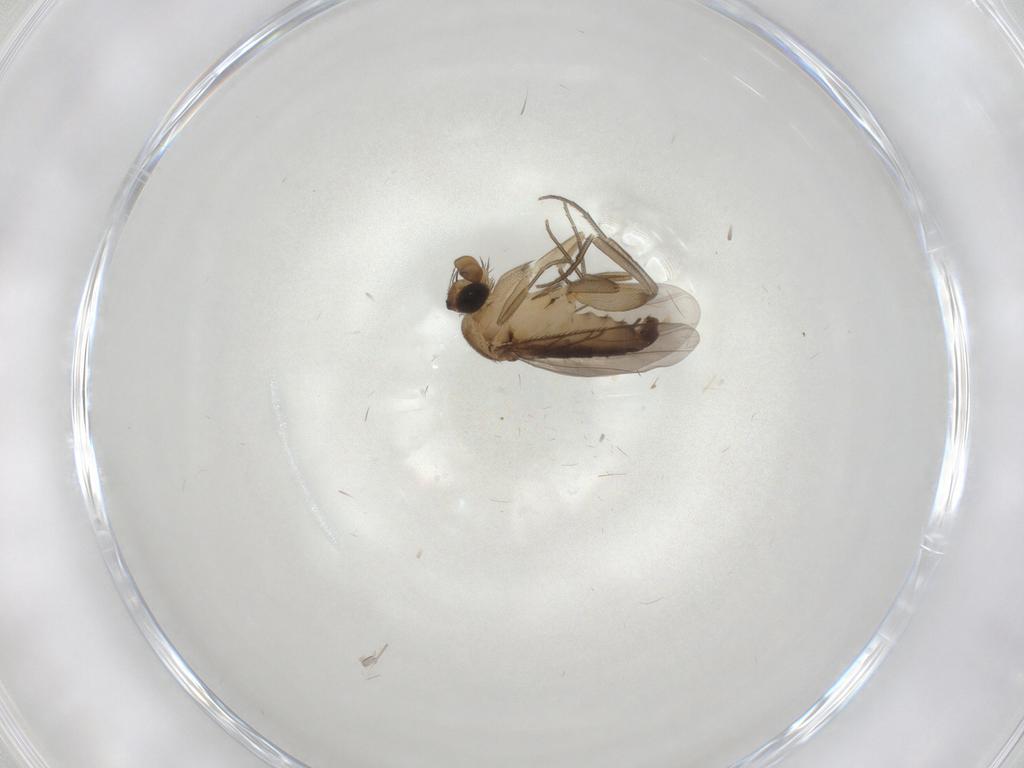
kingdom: Animalia
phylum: Arthropoda
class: Insecta
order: Diptera
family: Phoridae
